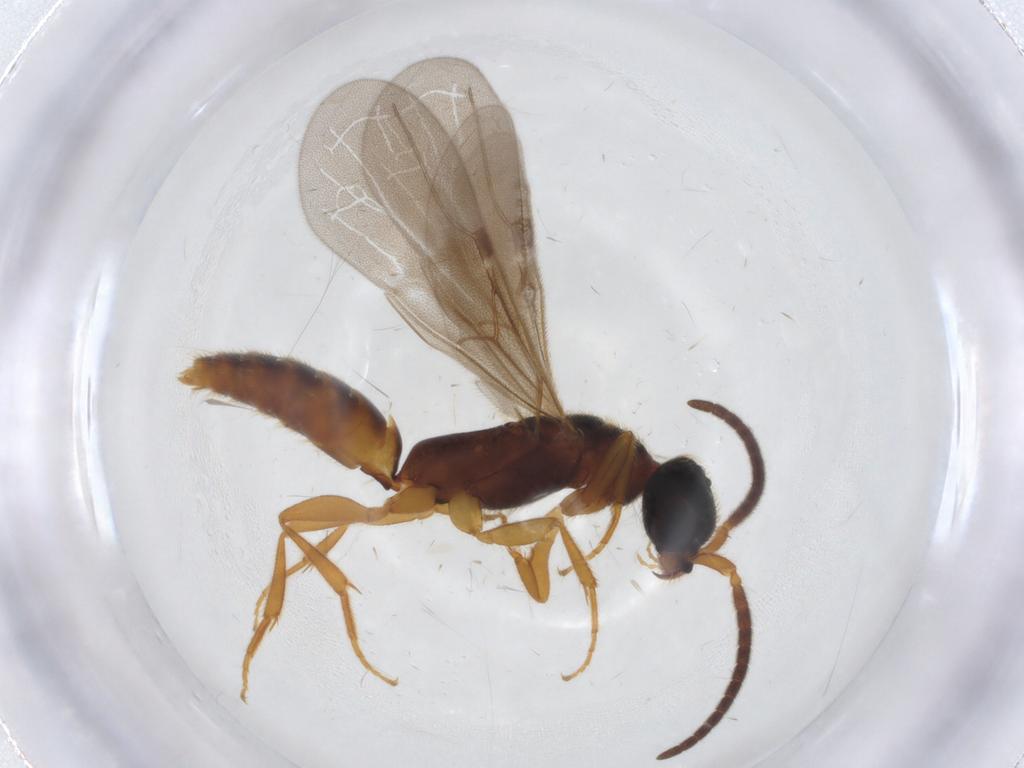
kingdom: Animalia
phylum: Arthropoda
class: Insecta
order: Hymenoptera
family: Bethylidae
